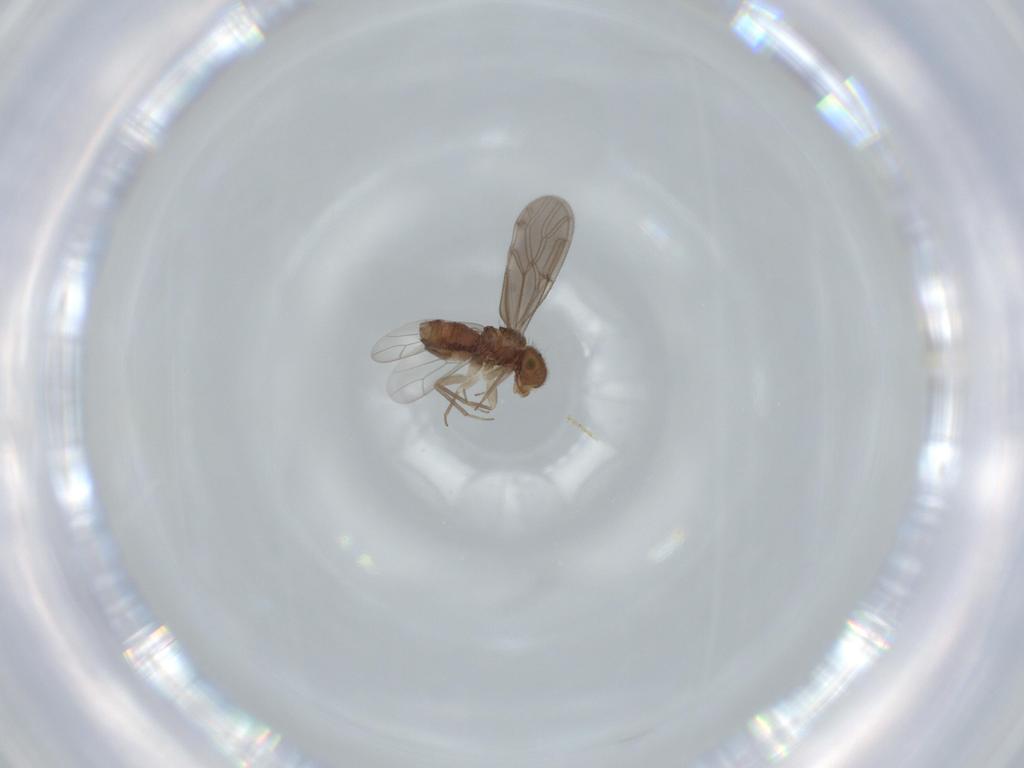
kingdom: Animalia
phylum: Arthropoda
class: Insecta
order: Psocodea
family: Ectopsocidae
